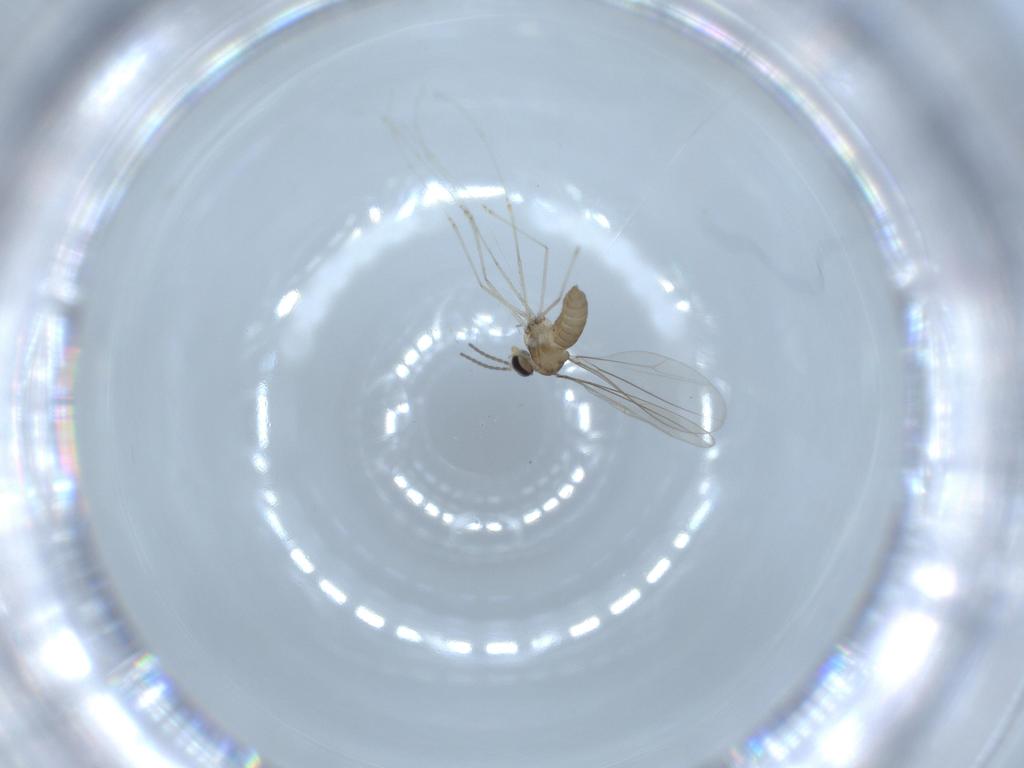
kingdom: Animalia
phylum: Arthropoda
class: Insecta
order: Diptera
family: Cecidomyiidae
